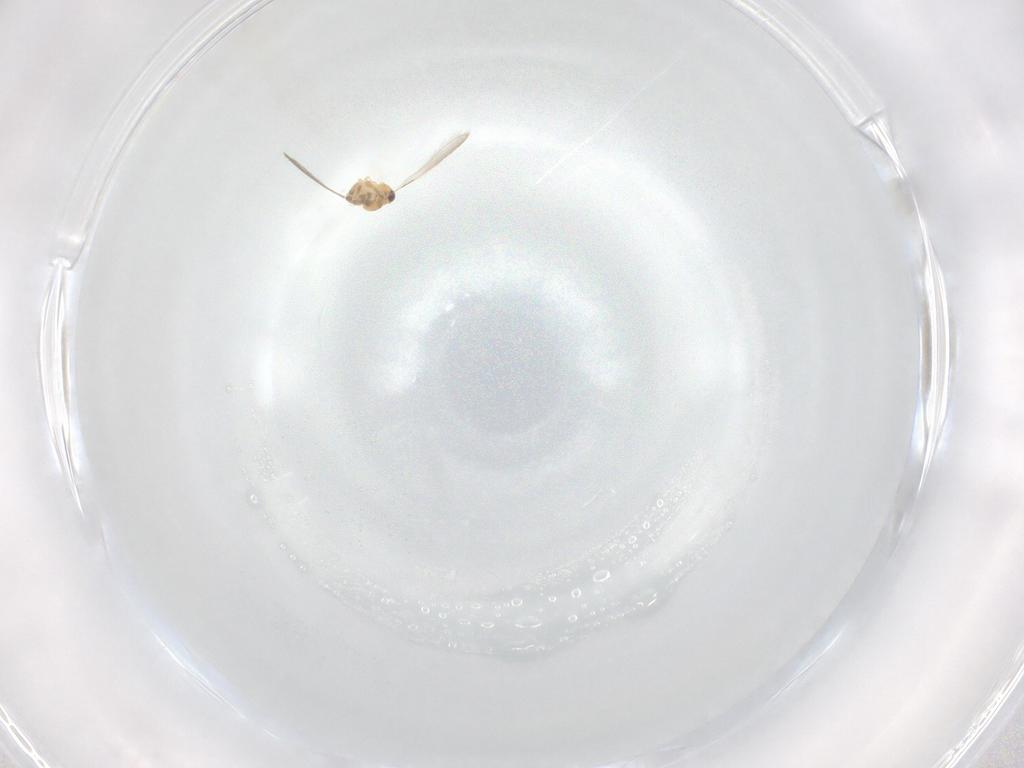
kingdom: Animalia
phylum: Arthropoda
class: Insecta
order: Hymenoptera
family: Mymaridae
